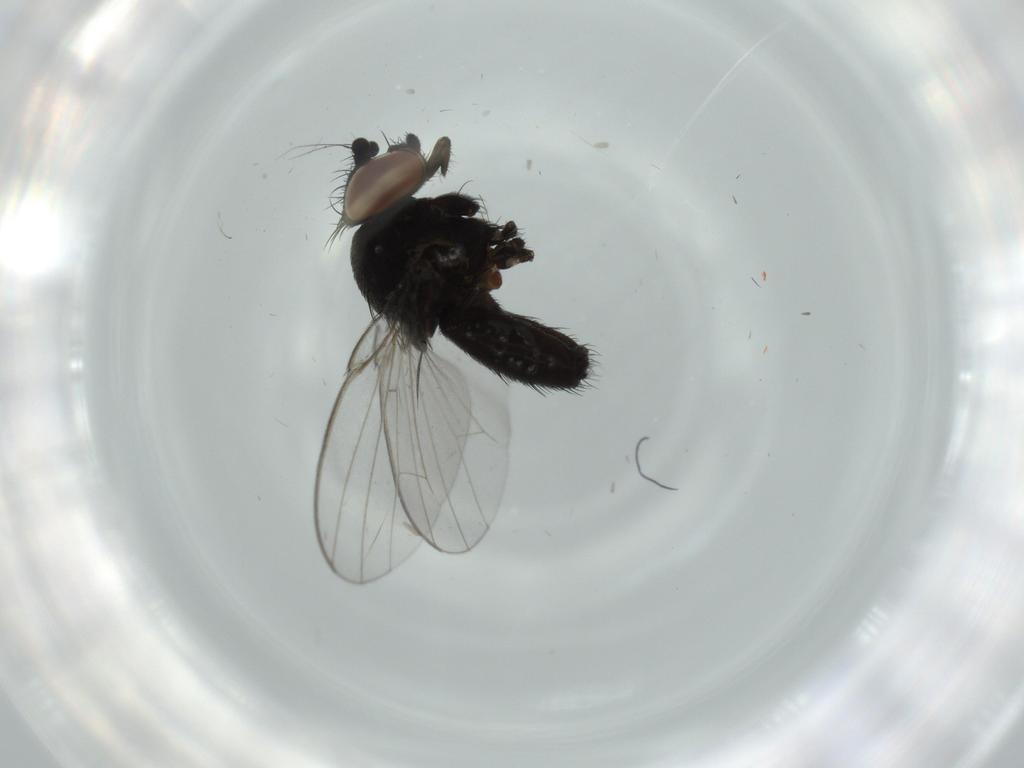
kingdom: Animalia
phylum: Arthropoda
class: Insecta
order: Diptera
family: Milichiidae
